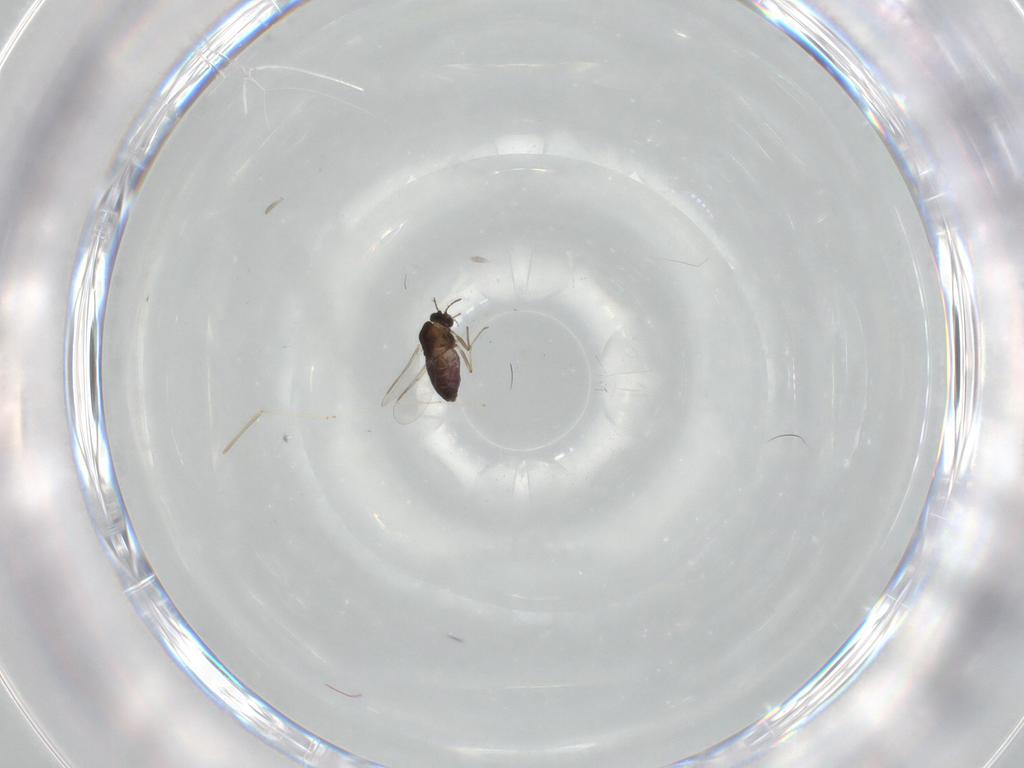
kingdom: Animalia
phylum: Arthropoda
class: Insecta
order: Diptera
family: Chironomidae
